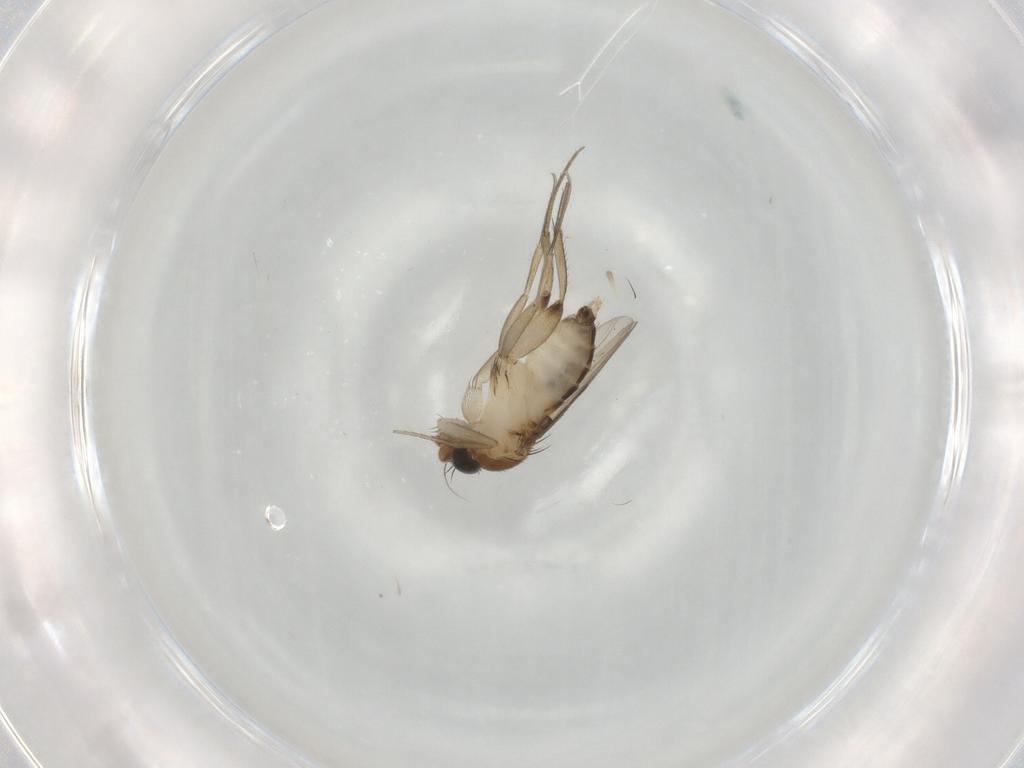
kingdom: Animalia
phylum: Arthropoda
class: Insecta
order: Diptera
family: Phoridae
